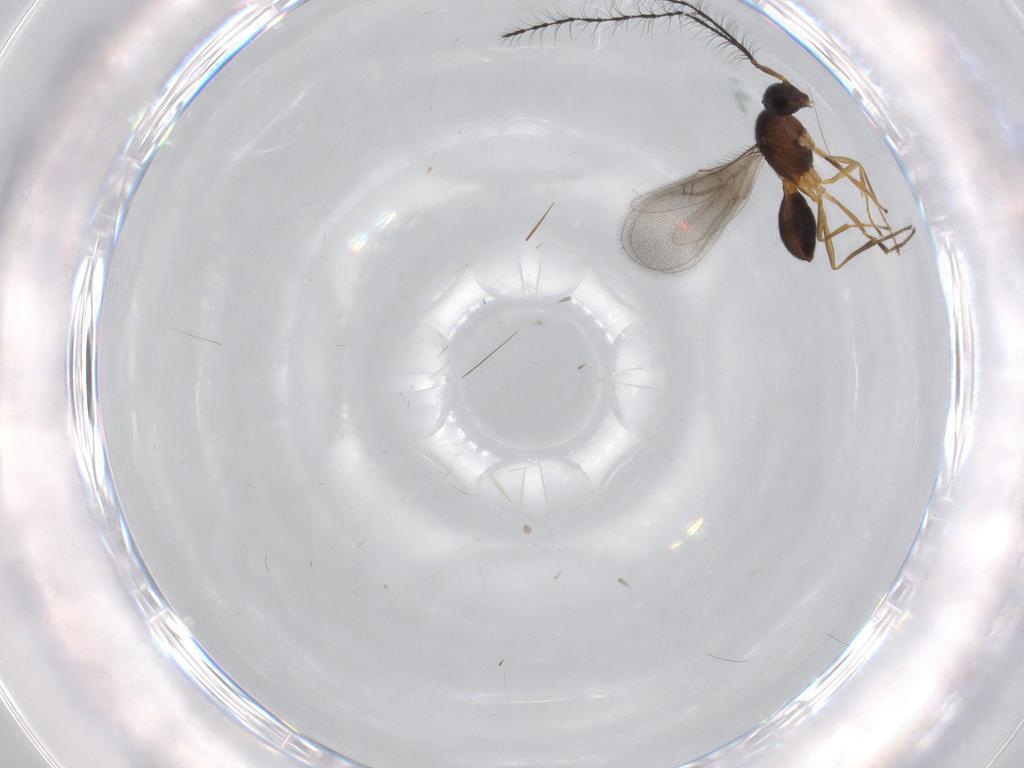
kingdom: Animalia
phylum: Arthropoda
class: Insecta
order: Hymenoptera
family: Scelionidae
